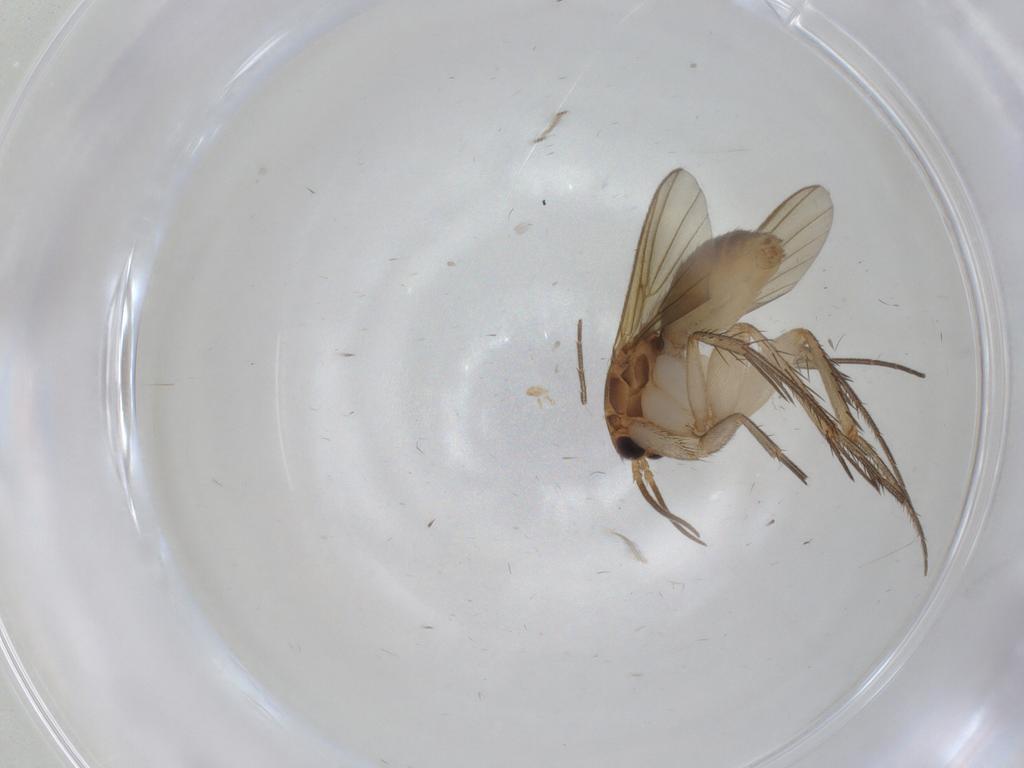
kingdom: Animalia
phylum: Arthropoda
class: Insecta
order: Diptera
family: Mycetophilidae
